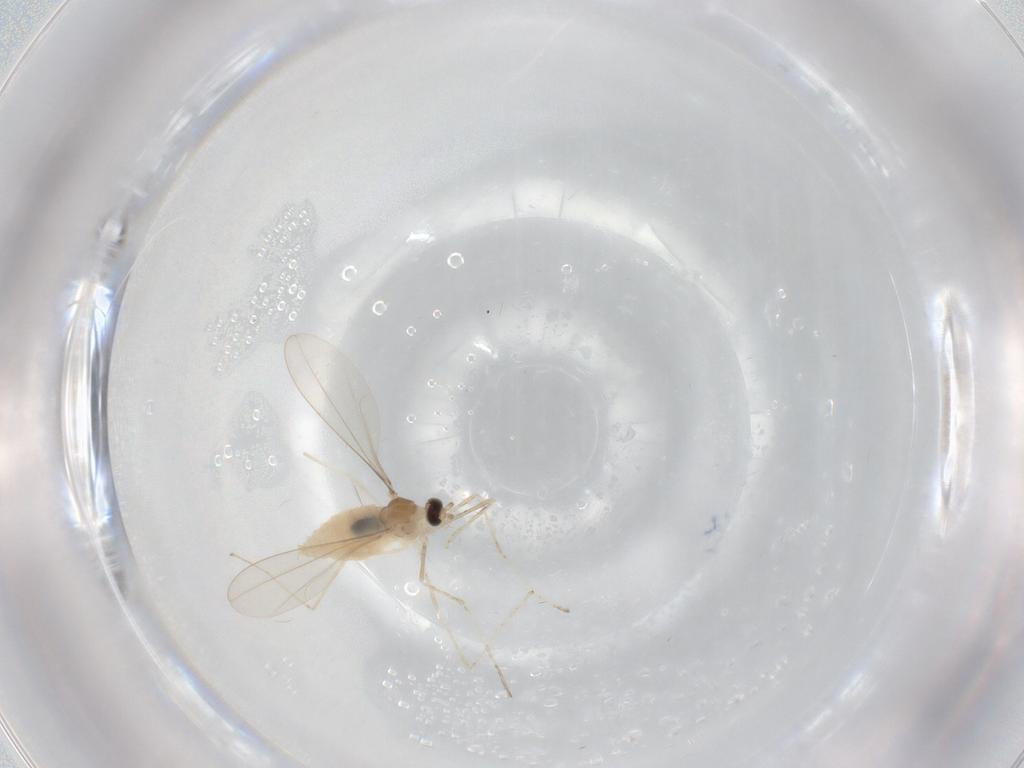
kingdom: Animalia
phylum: Arthropoda
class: Insecta
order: Diptera
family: Cecidomyiidae
